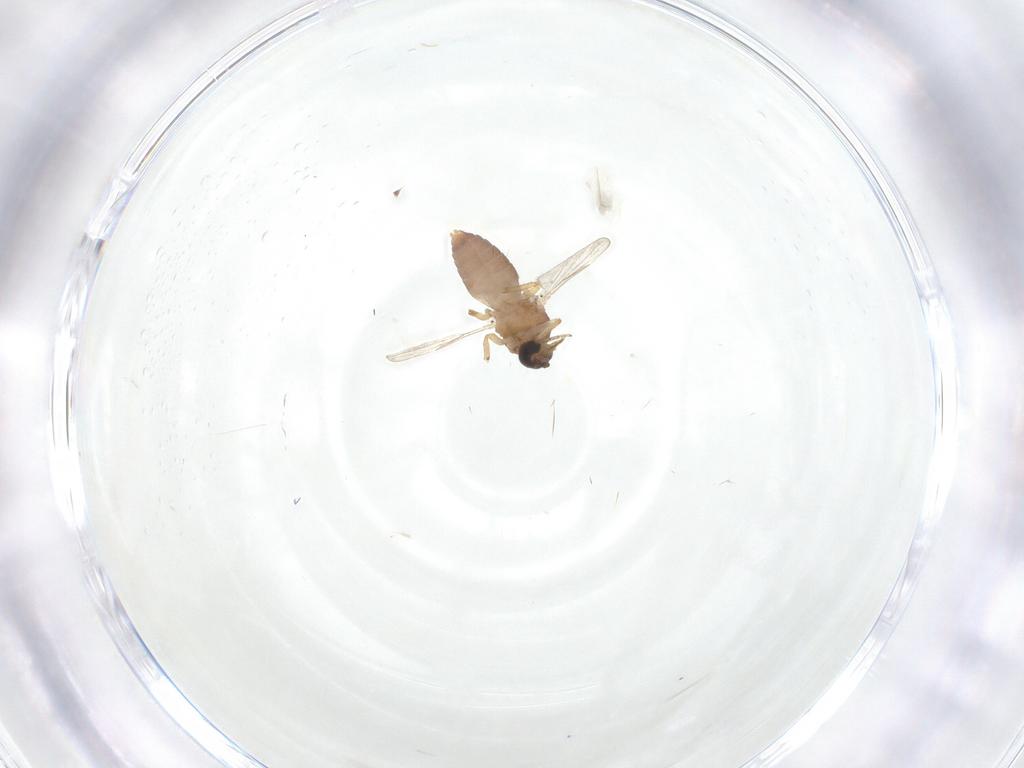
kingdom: Animalia
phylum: Arthropoda
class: Insecta
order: Diptera
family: Ceratopogonidae
